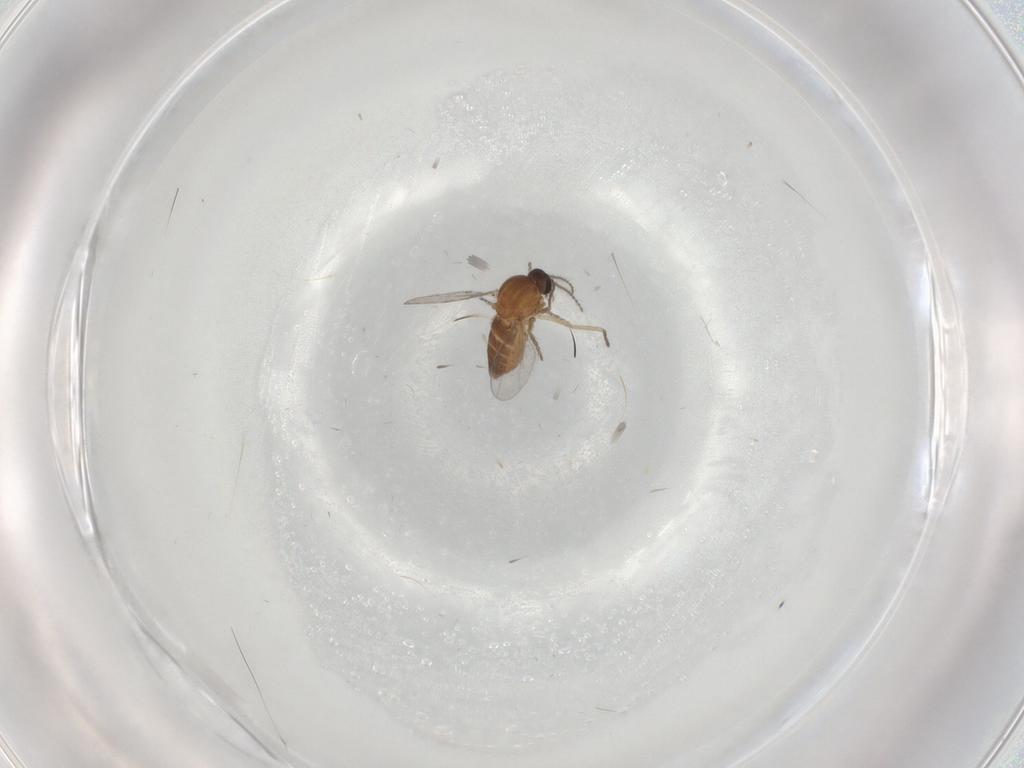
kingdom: Animalia
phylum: Arthropoda
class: Insecta
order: Diptera
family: Ceratopogonidae
